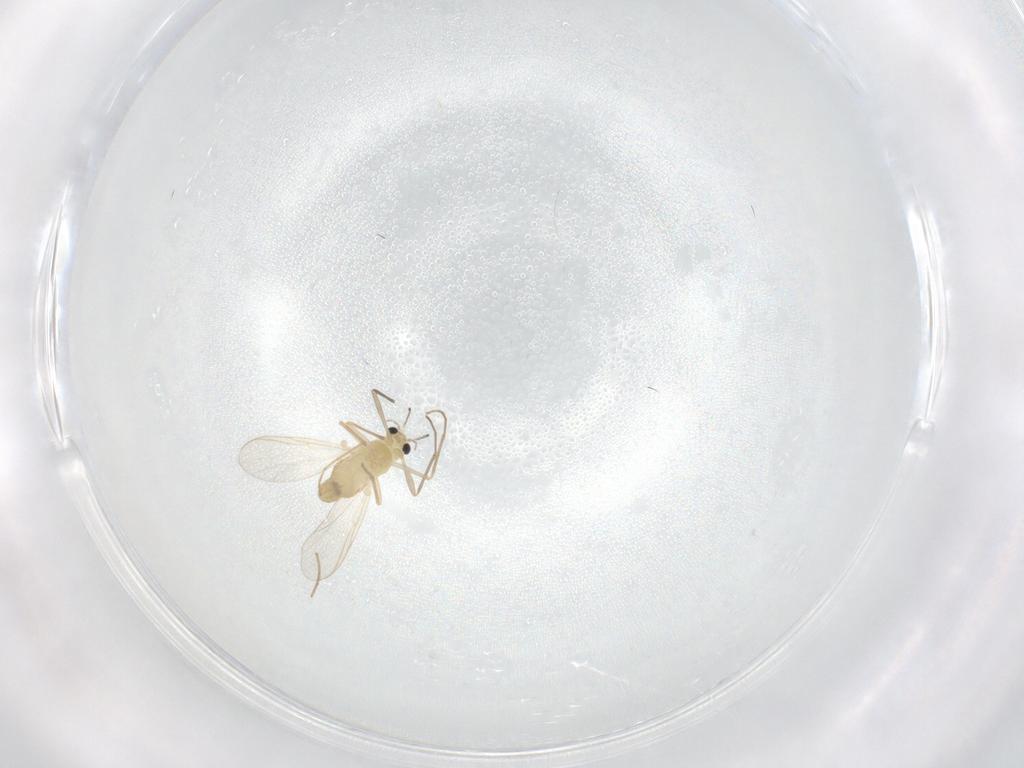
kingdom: Animalia
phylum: Arthropoda
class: Insecta
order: Diptera
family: Chironomidae
